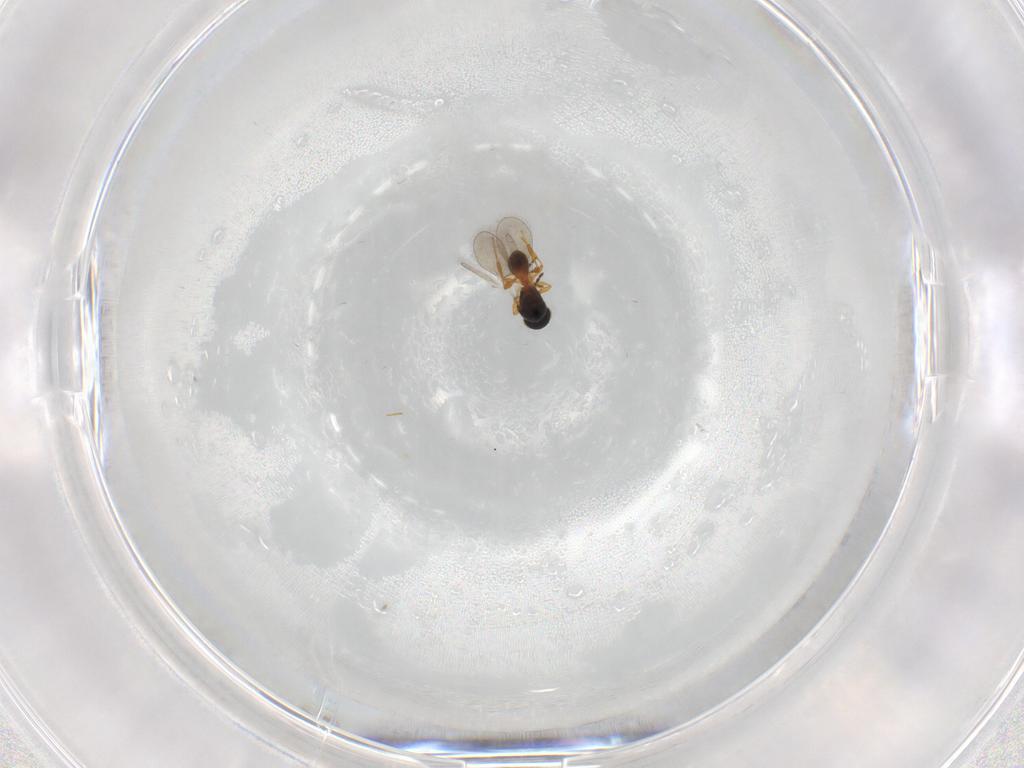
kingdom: Animalia
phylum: Arthropoda
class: Insecta
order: Hymenoptera
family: Platygastridae
